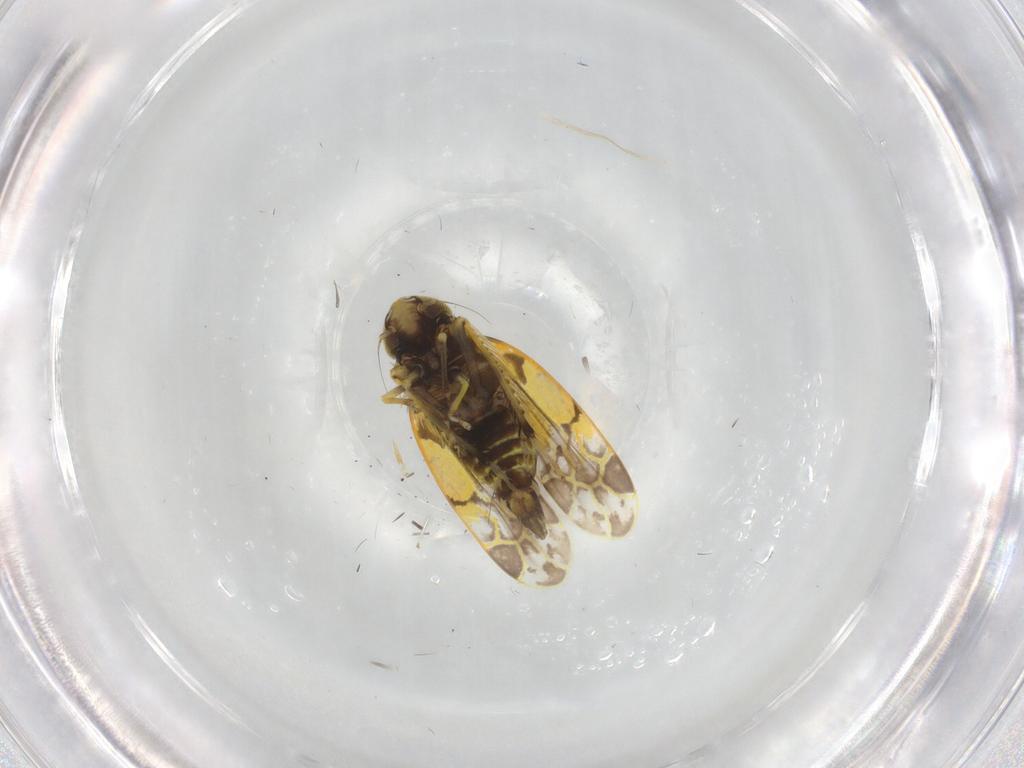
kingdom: Animalia
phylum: Arthropoda
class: Insecta
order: Hemiptera
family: Cicadellidae
